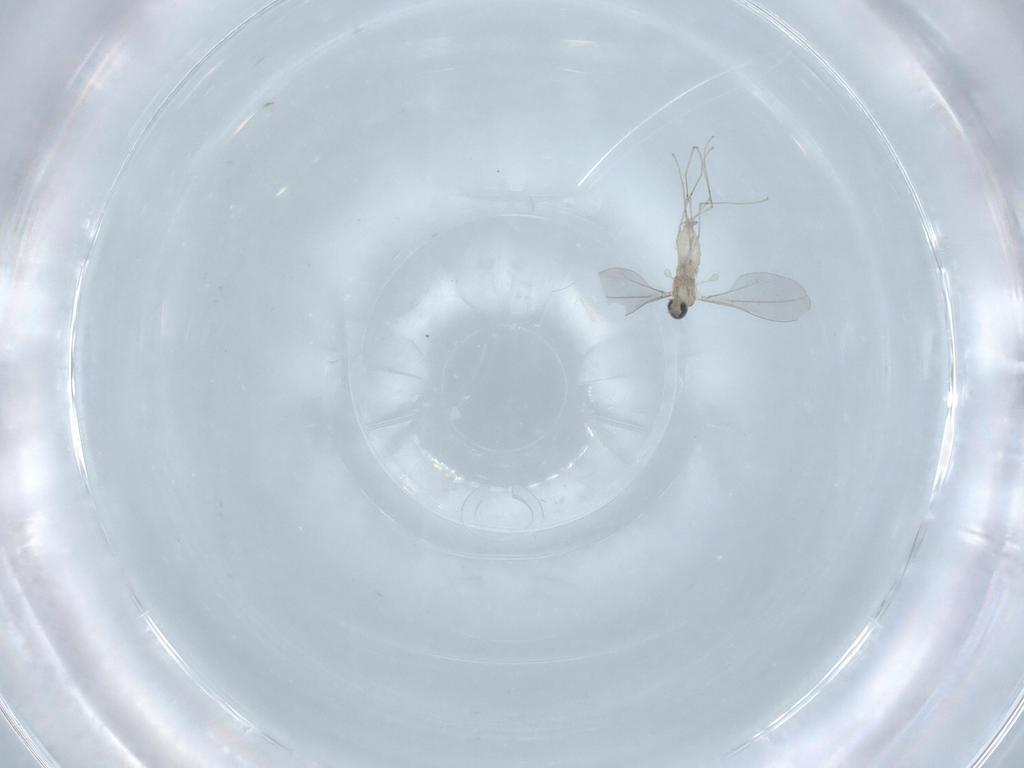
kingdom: Animalia
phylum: Arthropoda
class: Insecta
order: Diptera
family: Cecidomyiidae
